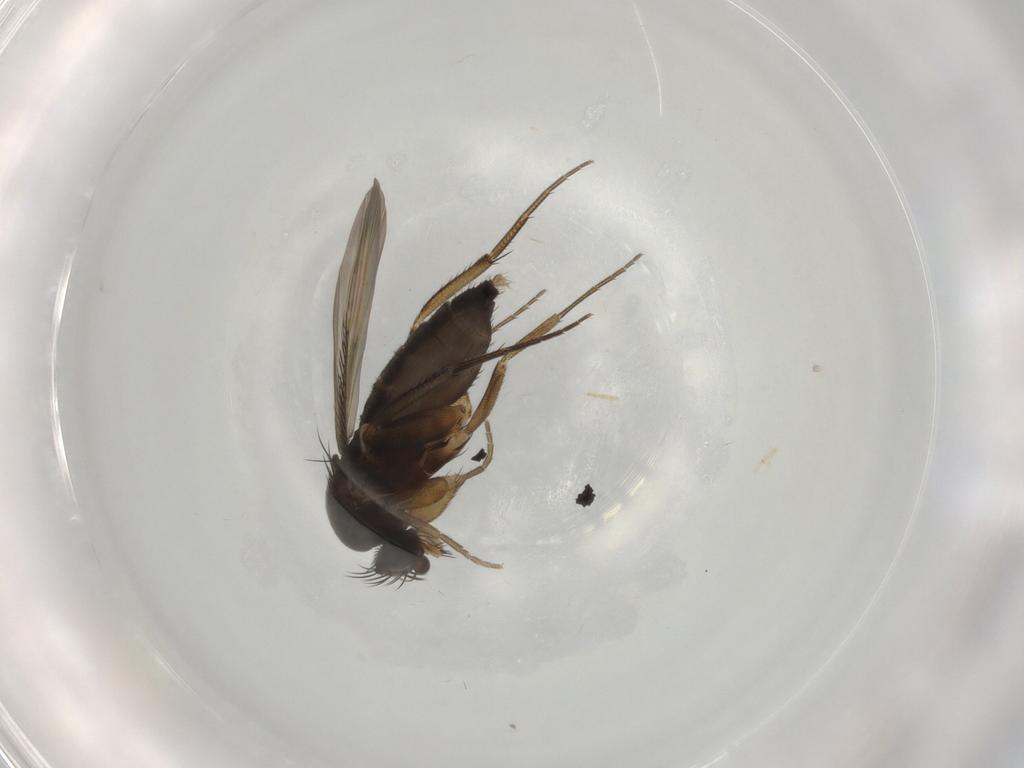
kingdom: Animalia
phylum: Arthropoda
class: Insecta
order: Diptera
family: Phoridae
